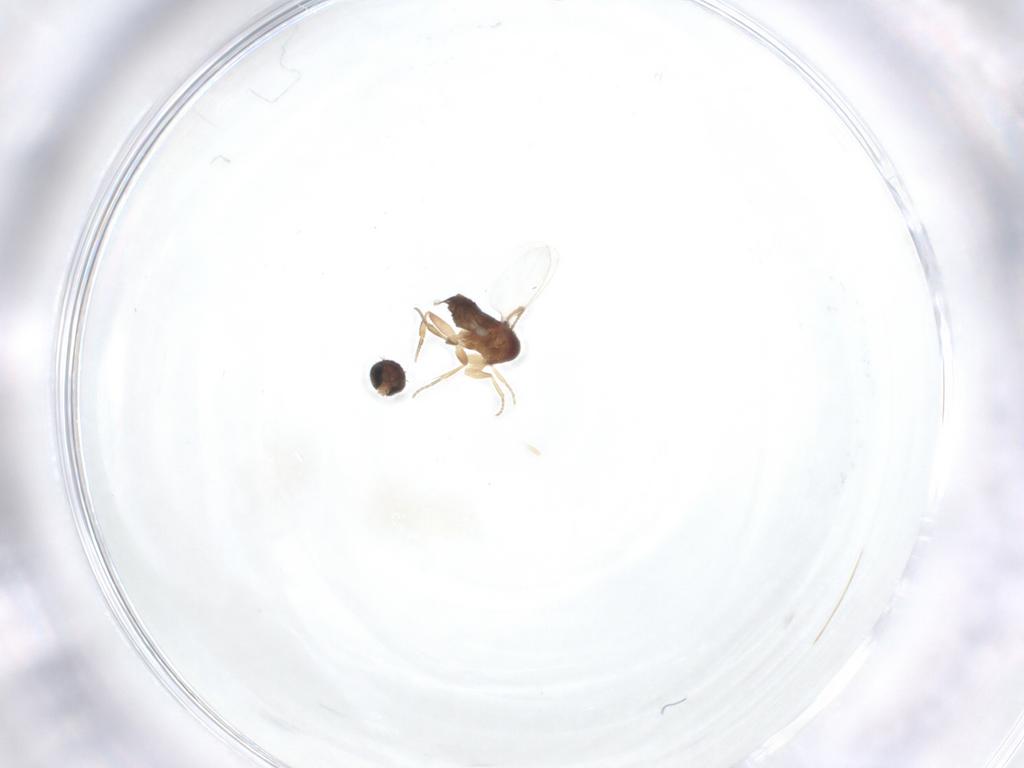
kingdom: Animalia
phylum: Arthropoda
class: Insecta
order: Diptera
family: Phoridae
